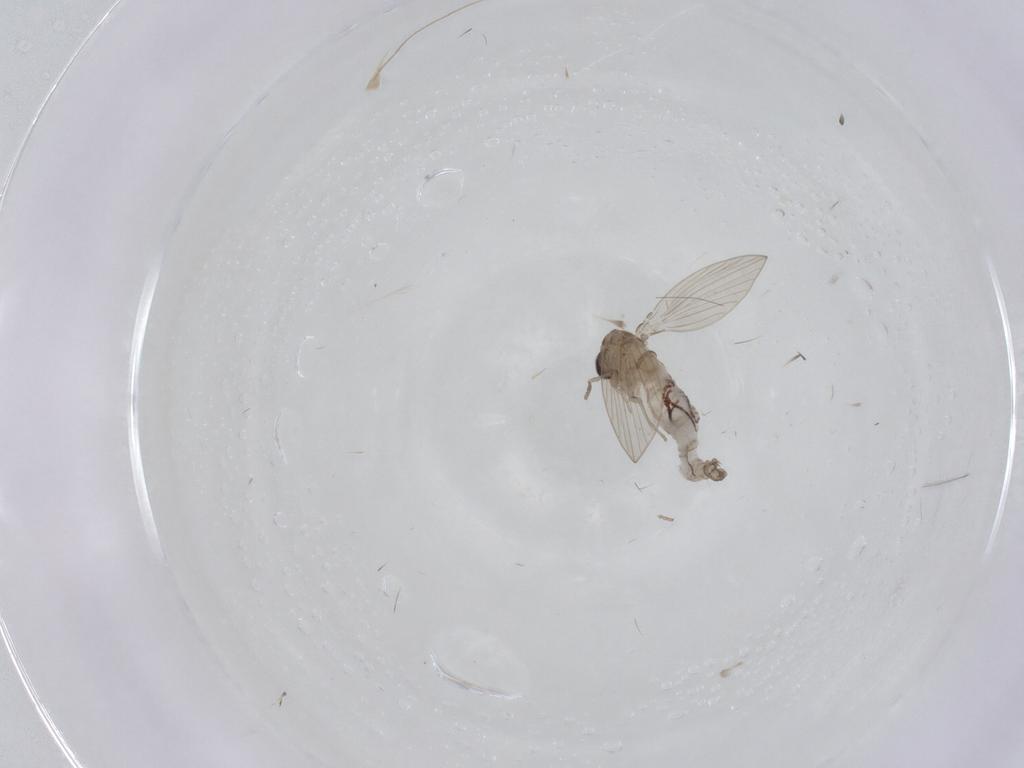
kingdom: Animalia
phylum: Arthropoda
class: Insecta
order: Diptera
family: Psychodidae
